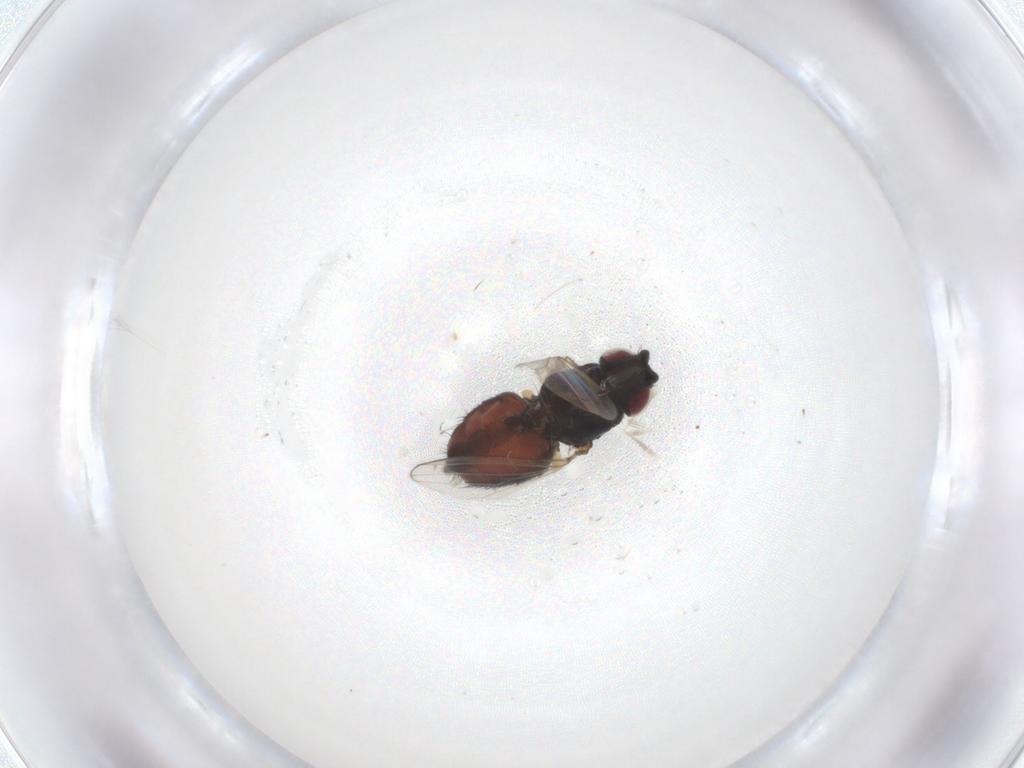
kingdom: Animalia
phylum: Arthropoda
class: Insecta
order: Diptera
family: Milichiidae
